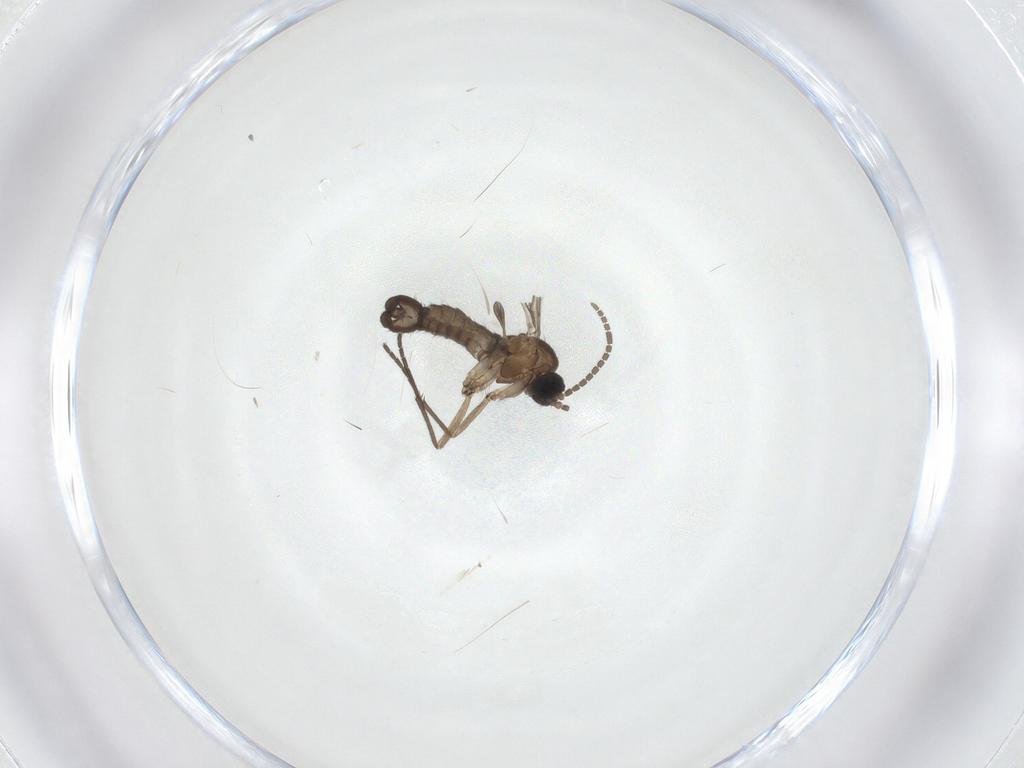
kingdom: Animalia
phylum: Arthropoda
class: Insecta
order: Diptera
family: Sciaridae
